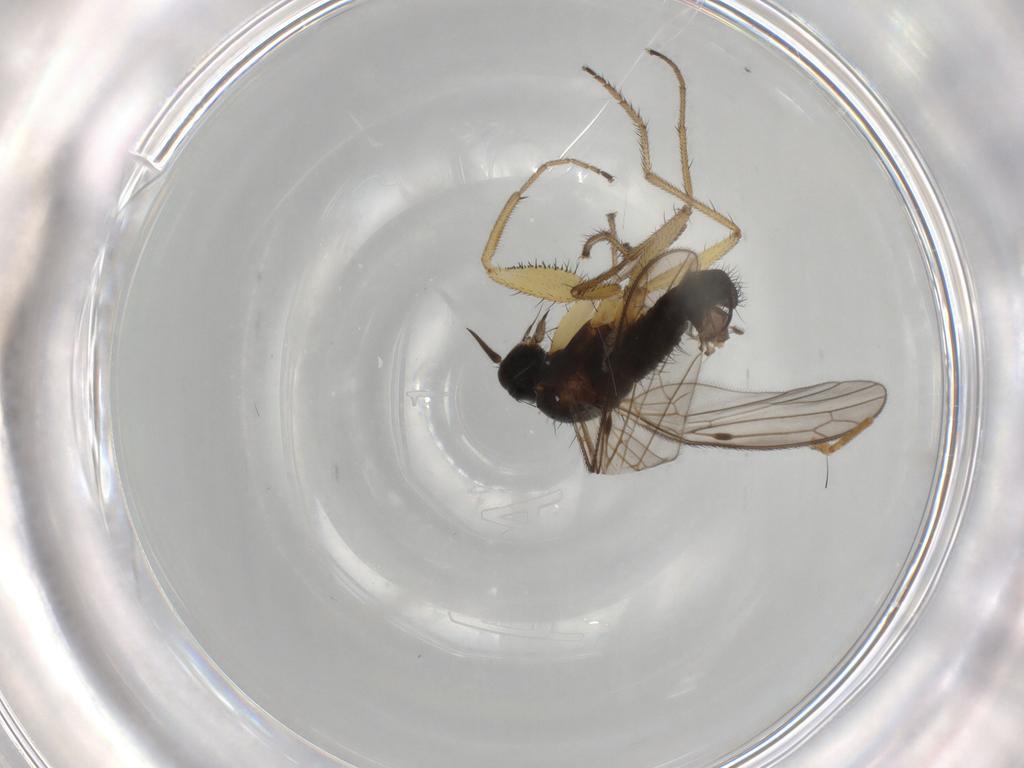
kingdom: Animalia
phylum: Arthropoda
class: Insecta
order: Diptera
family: Empididae
